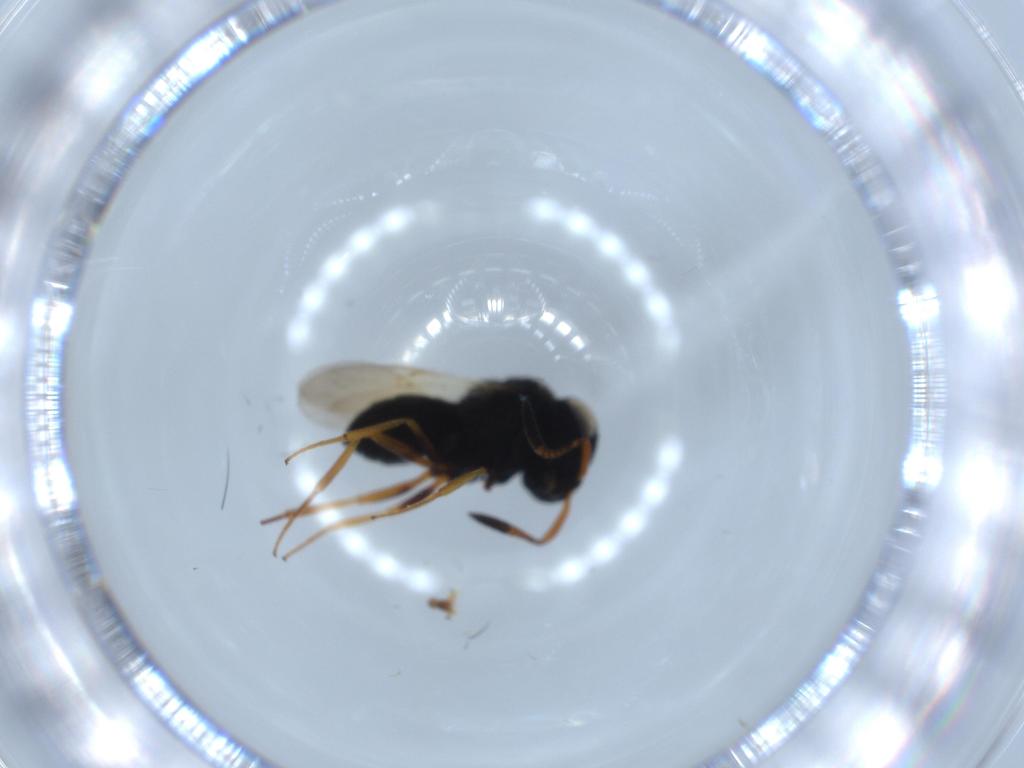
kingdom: Animalia
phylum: Arthropoda
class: Insecta
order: Hymenoptera
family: Scelionidae
